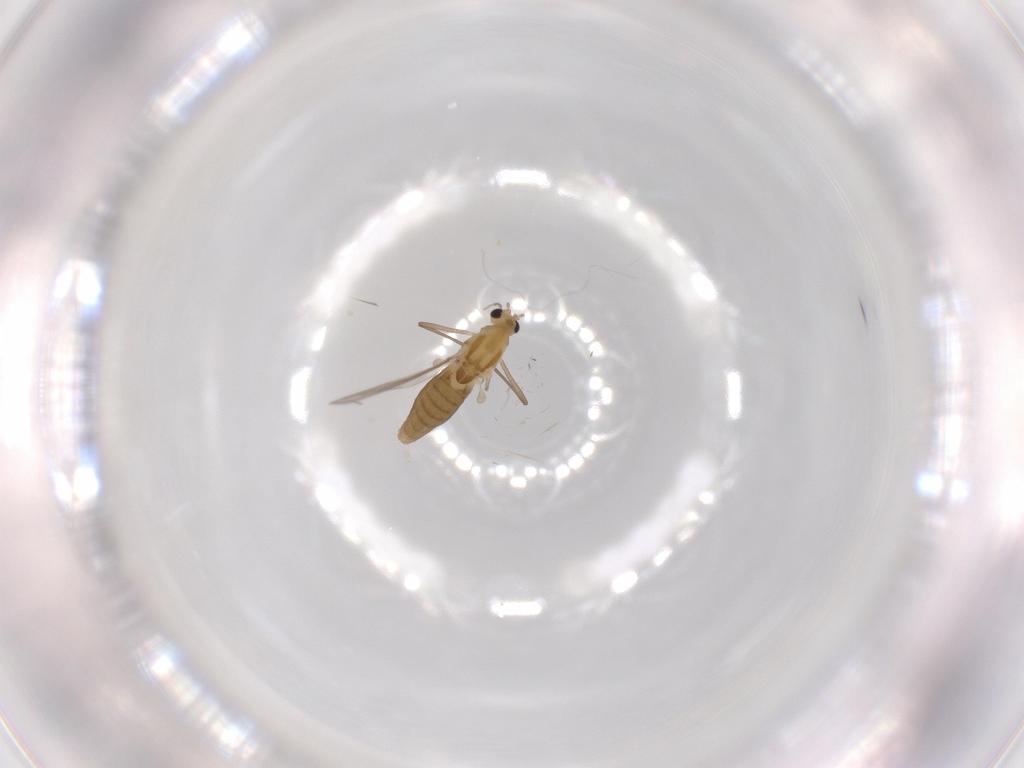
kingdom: Animalia
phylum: Arthropoda
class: Insecta
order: Diptera
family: Chironomidae
